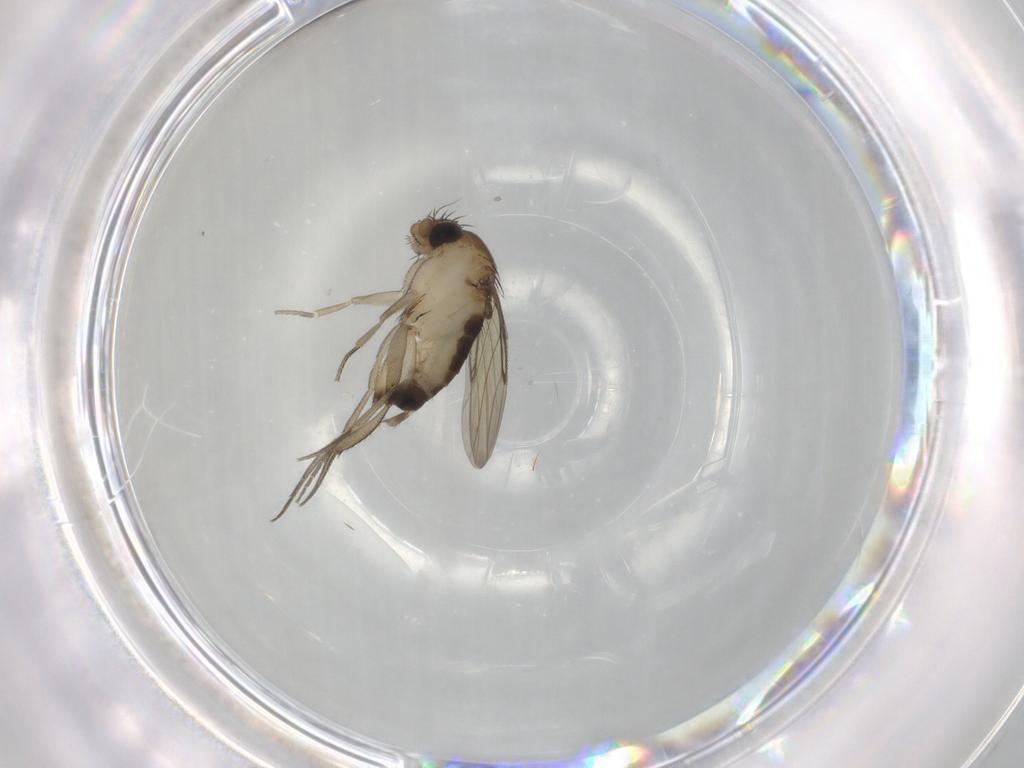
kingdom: Animalia
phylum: Arthropoda
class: Insecta
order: Diptera
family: Phoridae
